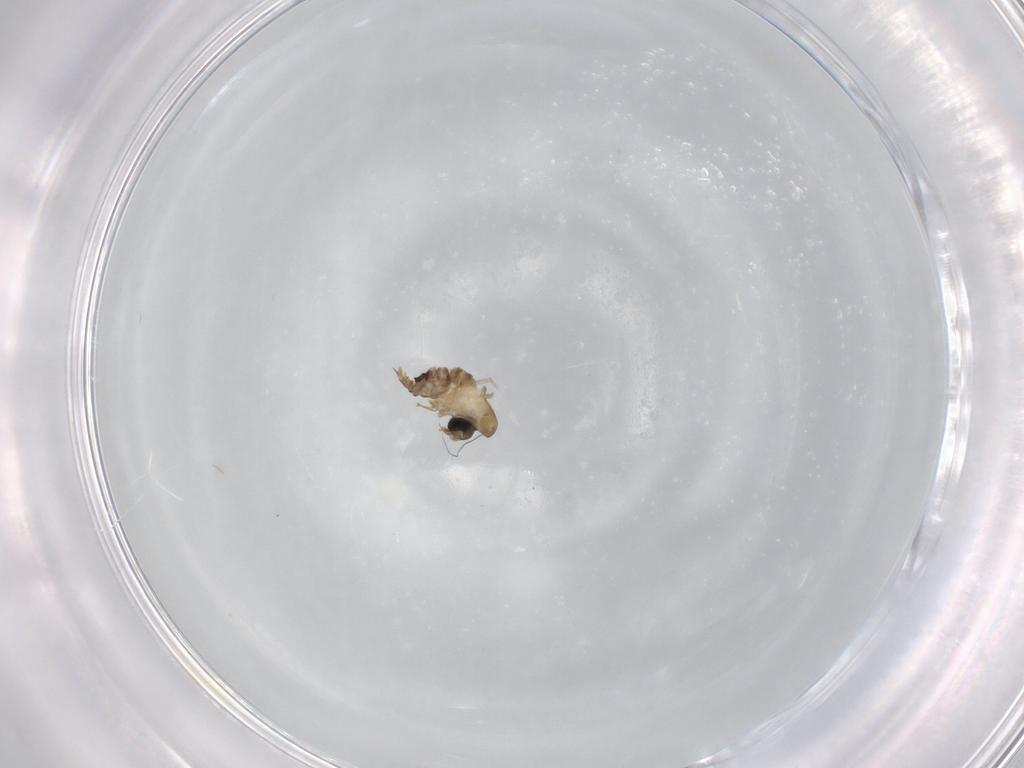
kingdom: Animalia
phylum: Arthropoda
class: Insecta
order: Diptera
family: Psychodidae
